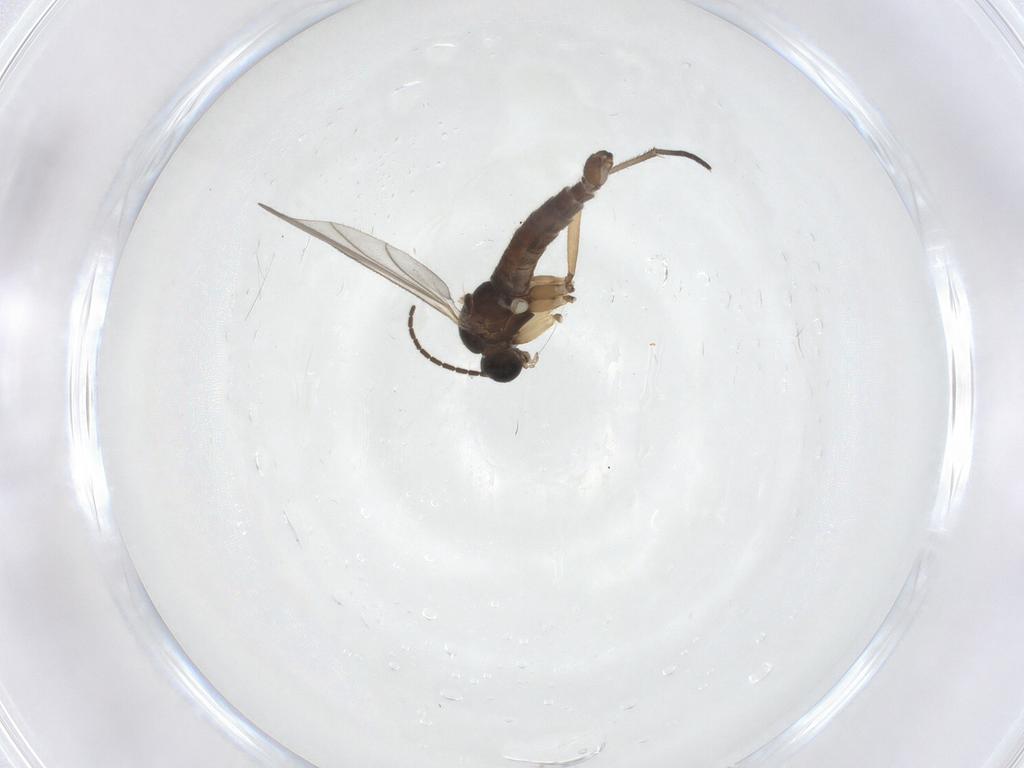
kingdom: Animalia
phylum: Arthropoda
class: Insecta
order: Diptera
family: Sciaridae
